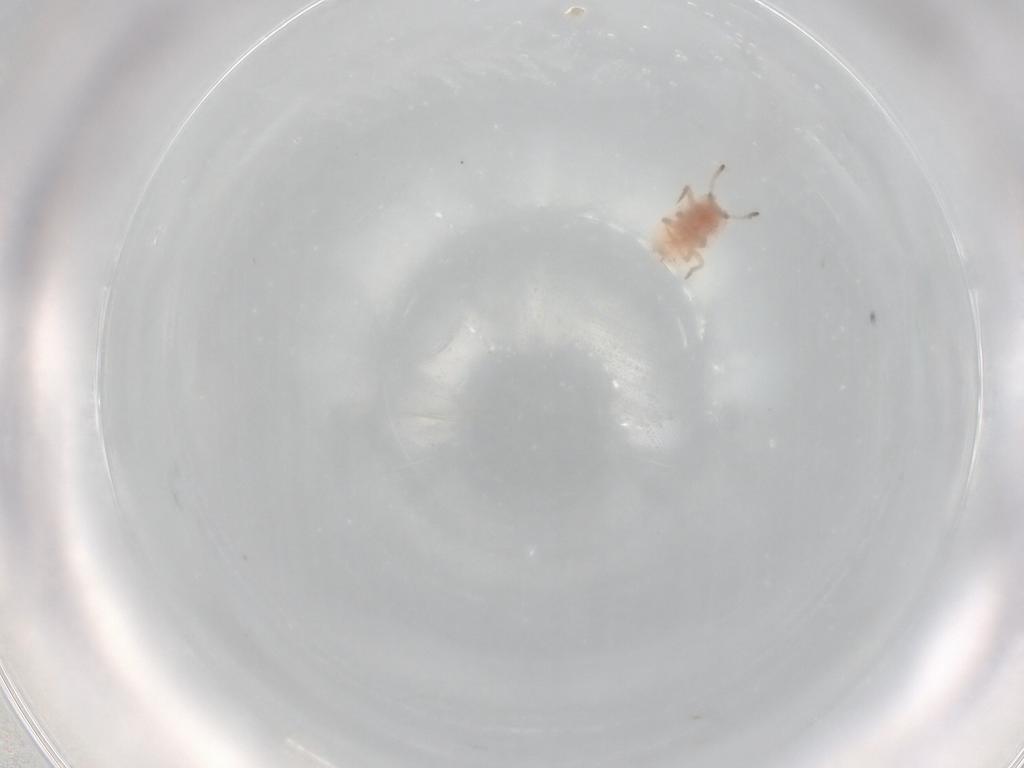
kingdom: Animalia
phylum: Arthropoda
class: Insecta
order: Hemiptera
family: Coccoidea_incertae_sedis
